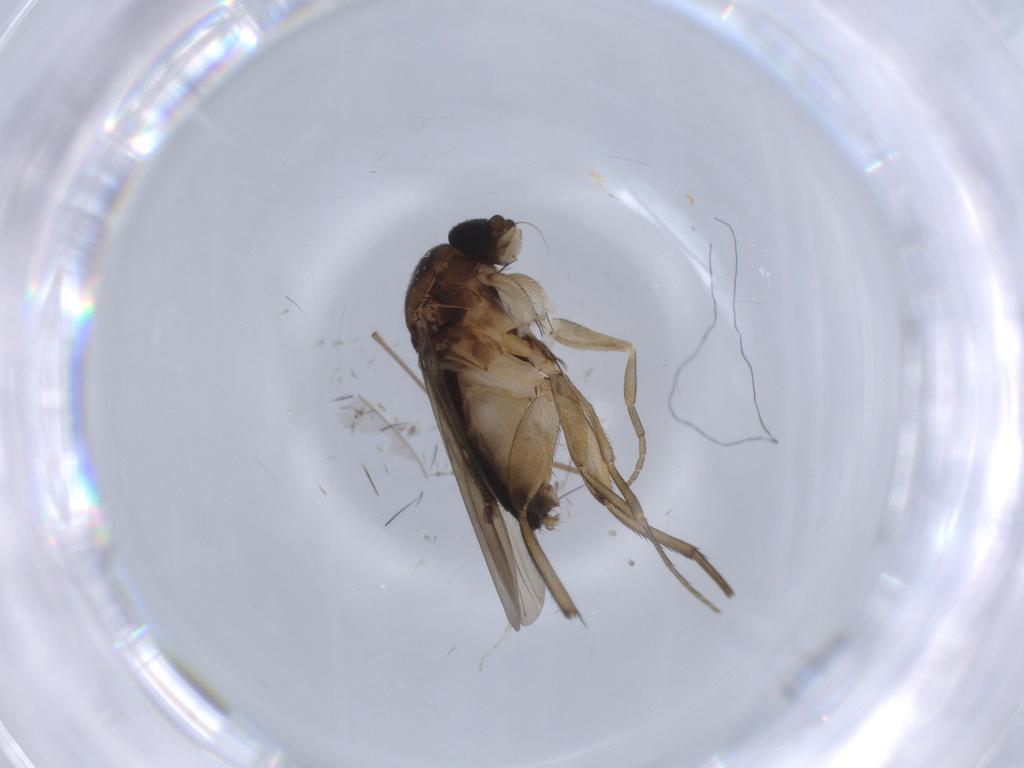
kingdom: Animalia
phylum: Arthropoda
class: Insecta
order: Diptera
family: Phoridae
